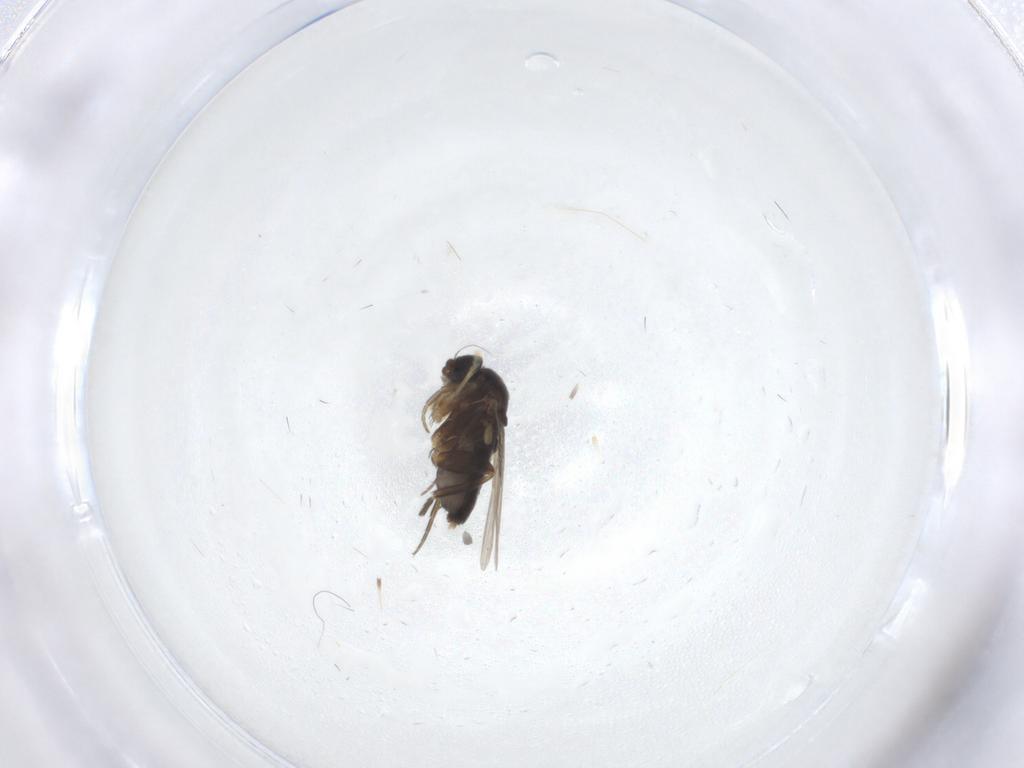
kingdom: Animalia
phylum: Arthropoda
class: Insecta
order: Diptera
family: Phoridae
